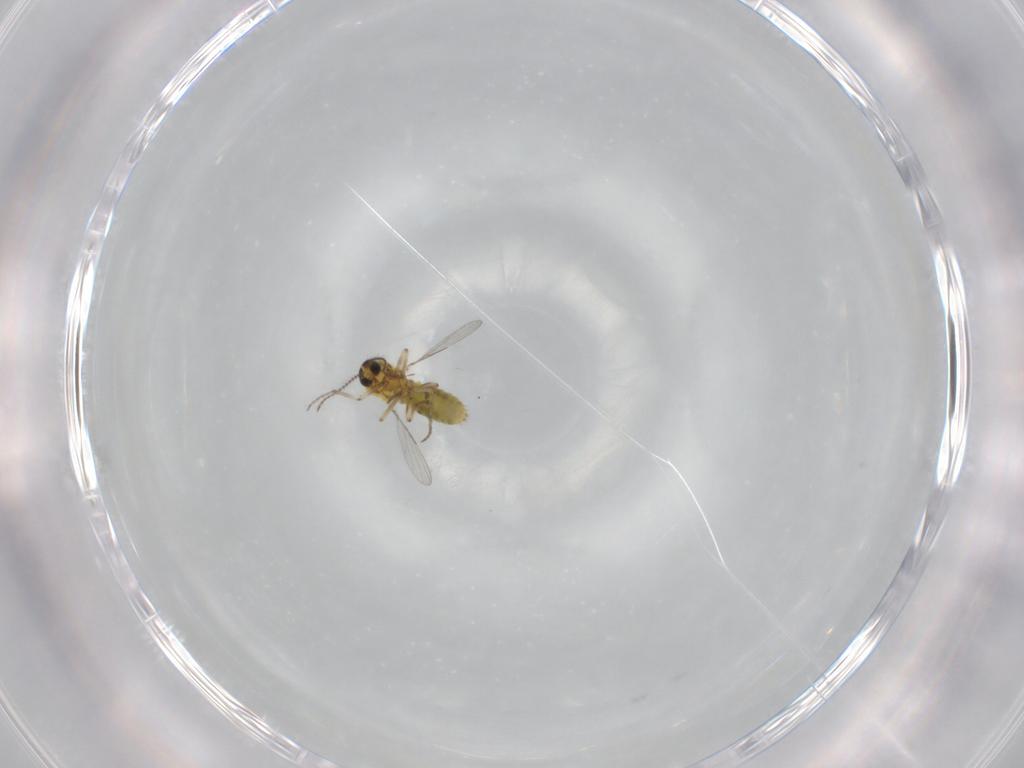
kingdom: Animalia
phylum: Arthropoda
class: Insecta
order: Diptera
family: Ceratopogonidae
